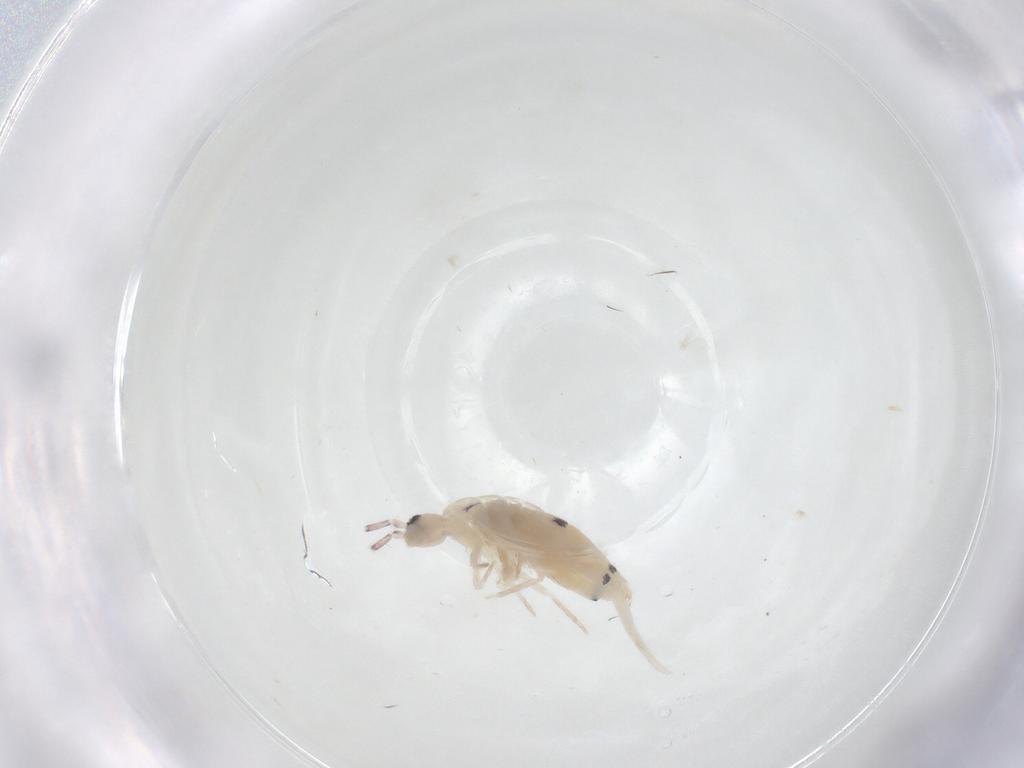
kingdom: Animalia
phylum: Arthropoda
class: Collembola
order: Entomobryomorpha
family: Entomobryidae
